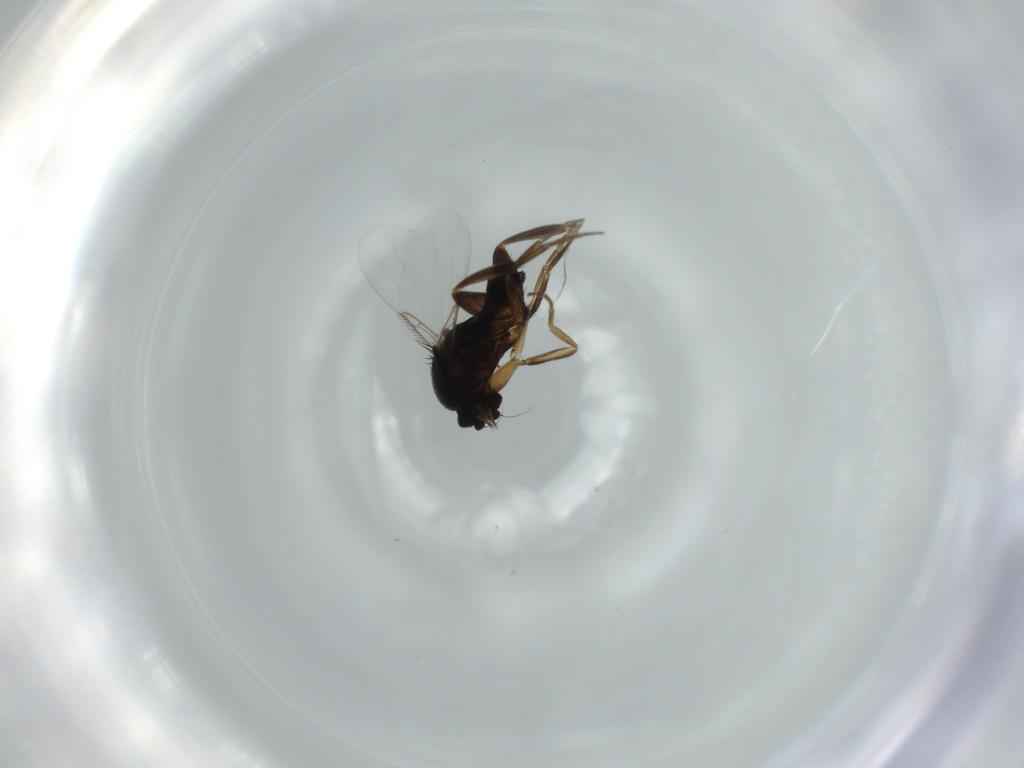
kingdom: Animalia
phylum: Arthropoda
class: Insecta
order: Diptera
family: Phoridae
